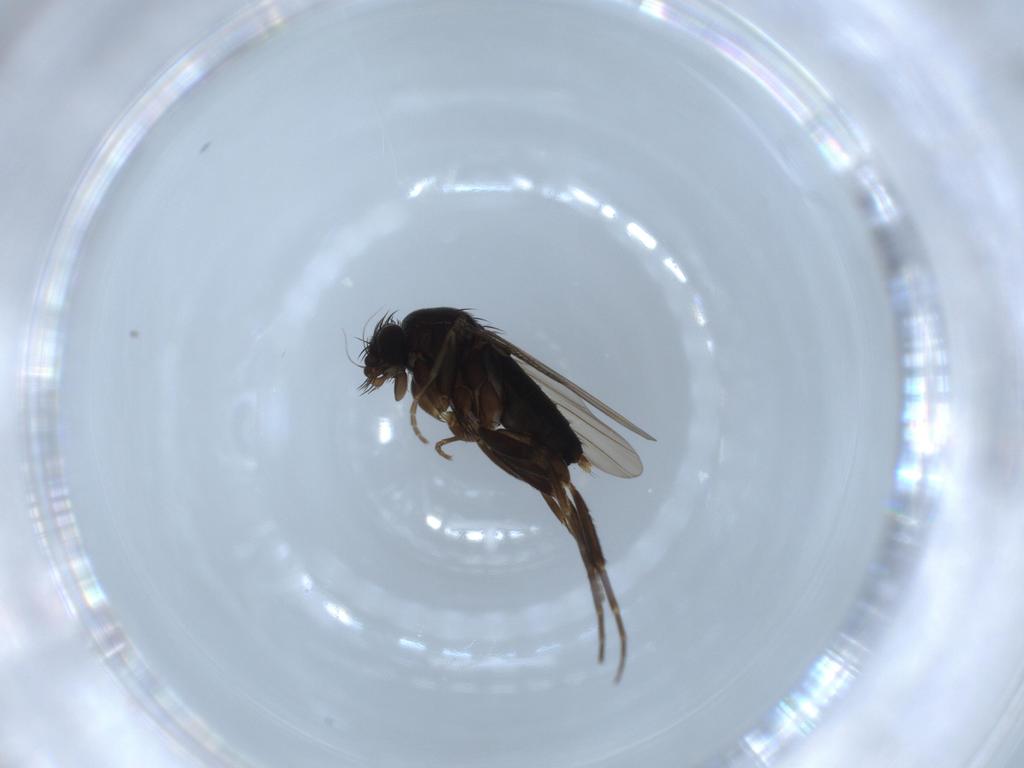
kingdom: Animalia
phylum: Arthropoda
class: Insecta
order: Diptera
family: Phoridae
